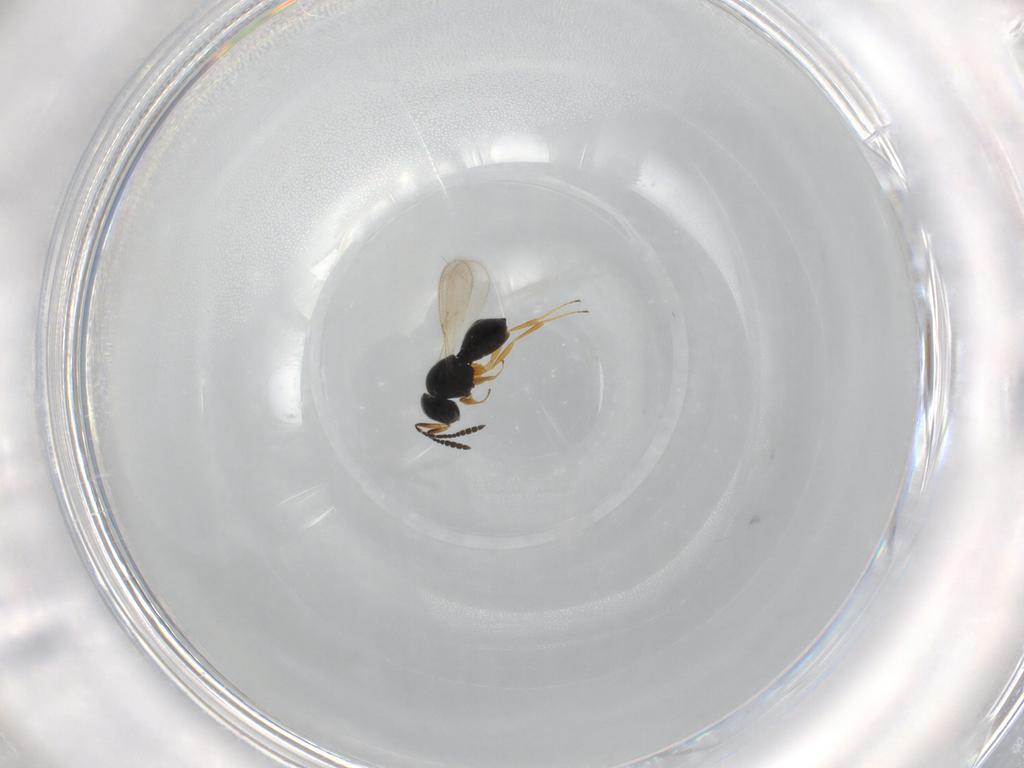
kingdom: Animalia
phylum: Arthropoda
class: Insecta
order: Hymenoptera
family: Scelionidae
